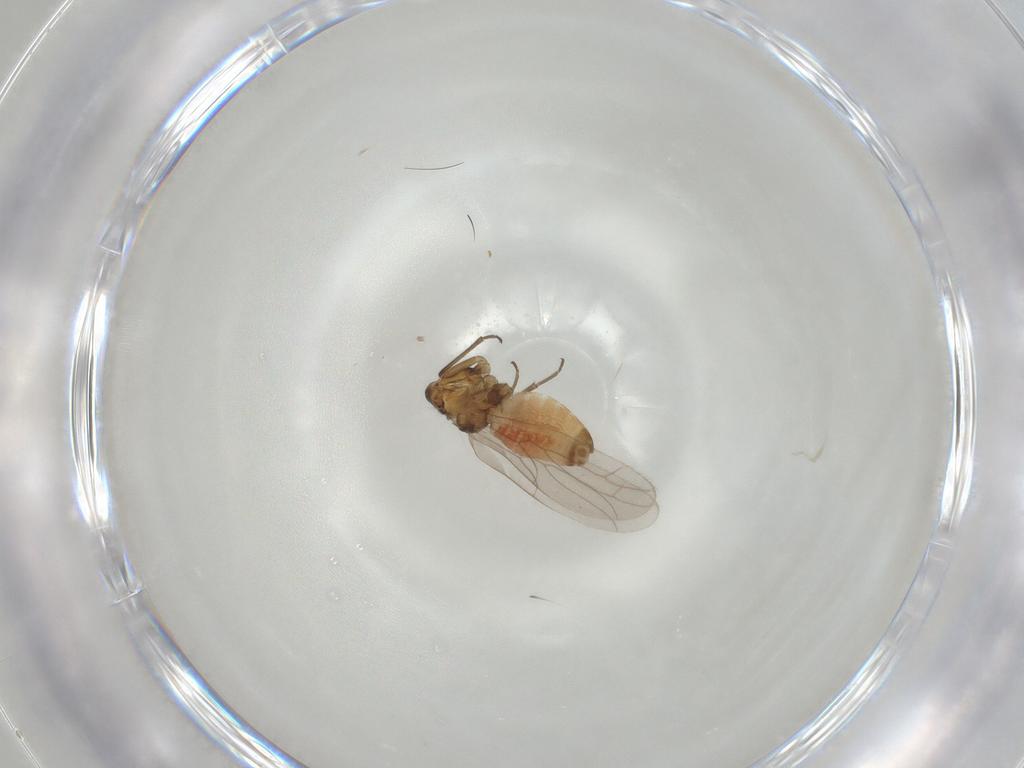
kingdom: Animalia
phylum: Arthropoda
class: Insecta
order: Psocodea
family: Trichopsocidae
